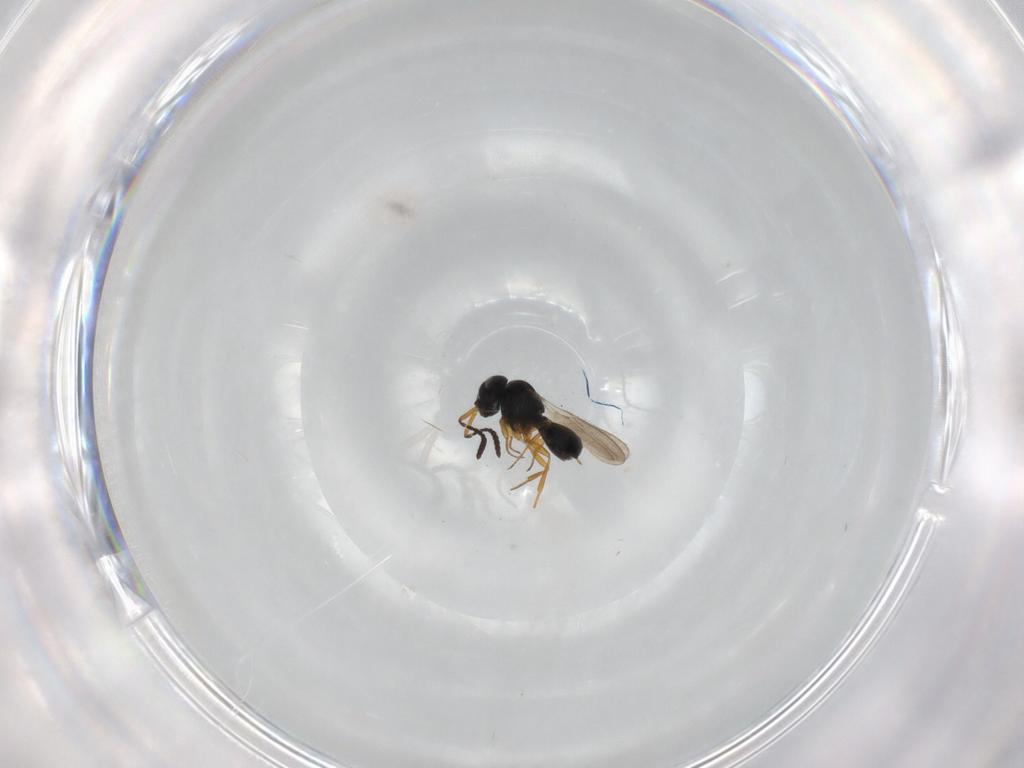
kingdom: Animalia
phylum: Arthropoda
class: Insecta
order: Hymenoptera
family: Scelionidae
